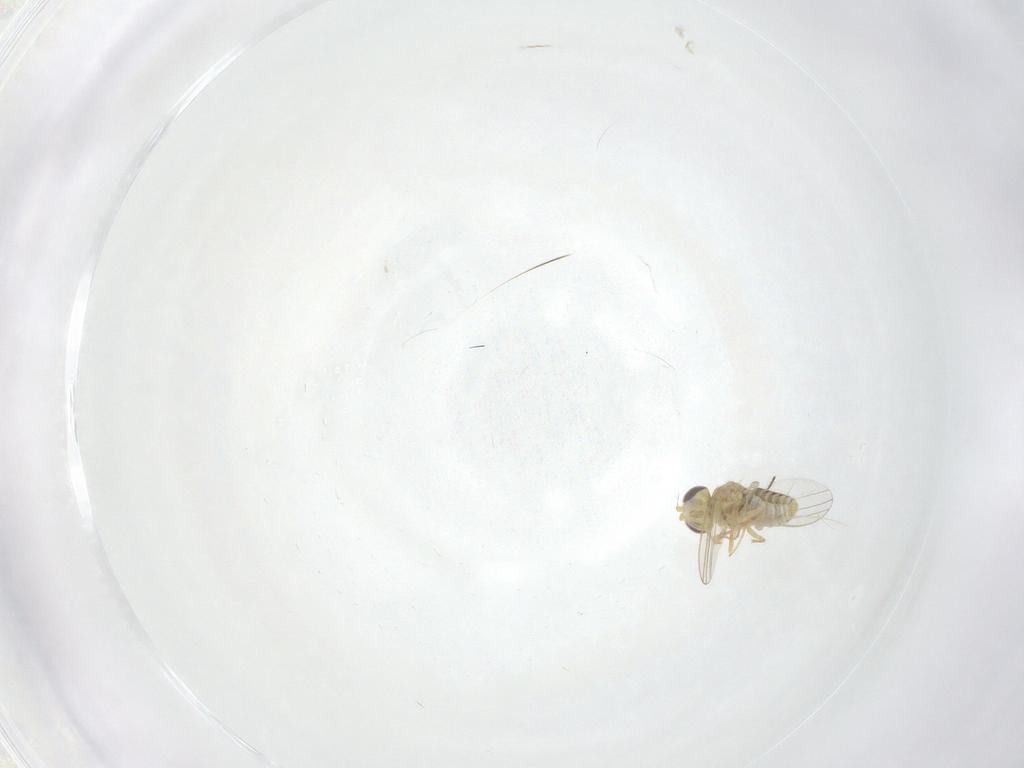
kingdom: Animalia
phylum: Arthropoda
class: Insecta
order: Diptera
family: Chyromyidae
